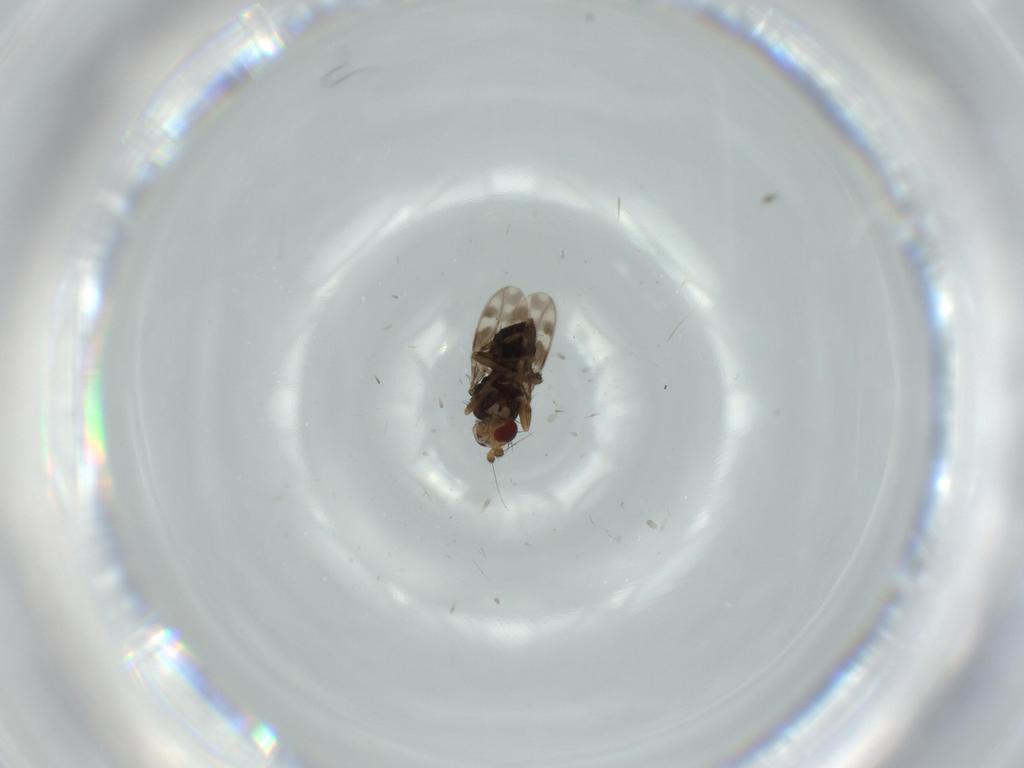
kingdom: Animalia
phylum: Arthropoda
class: Insecta
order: Diptera
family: Sphaeroceridae
